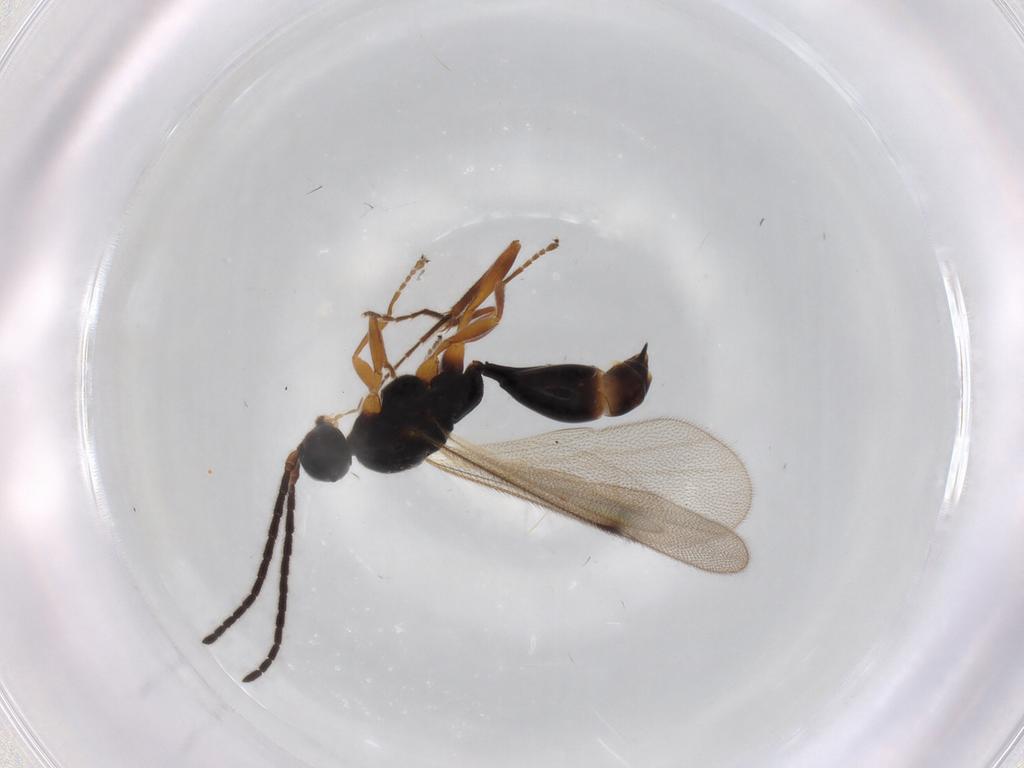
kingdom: Animalia
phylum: Arthropoda
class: Insecta
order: Hymenoptera
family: Proctotrupidae
